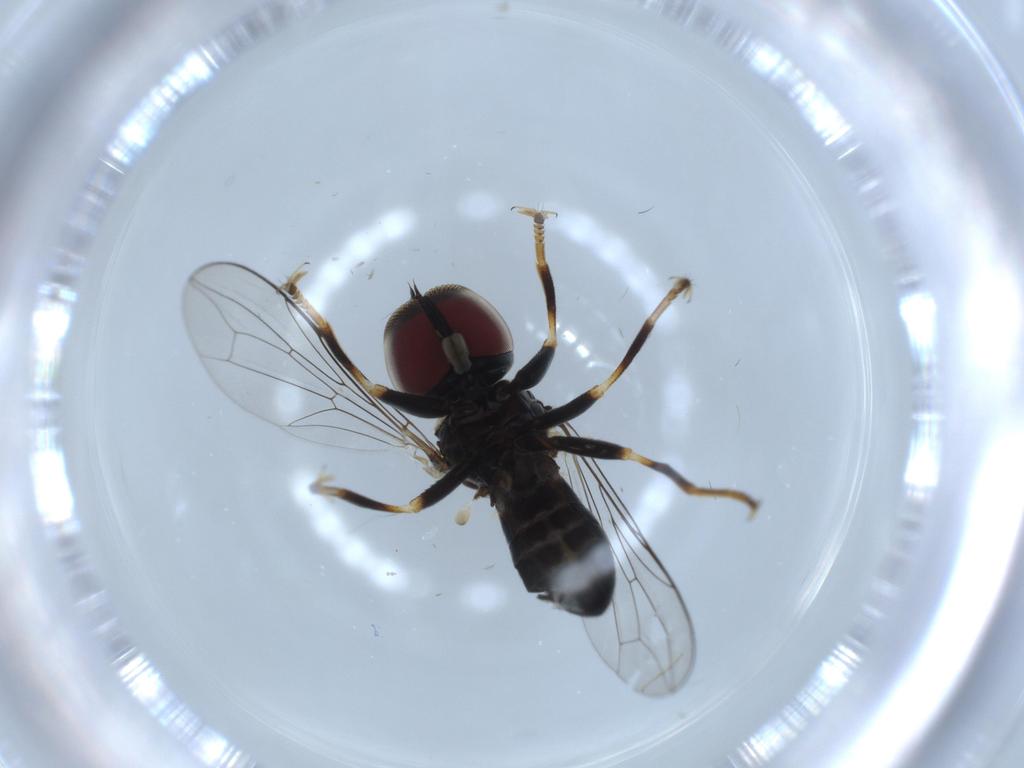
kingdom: Animalia
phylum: Arthropoda
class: Insecta
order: Diptera
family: Pipunculidae
